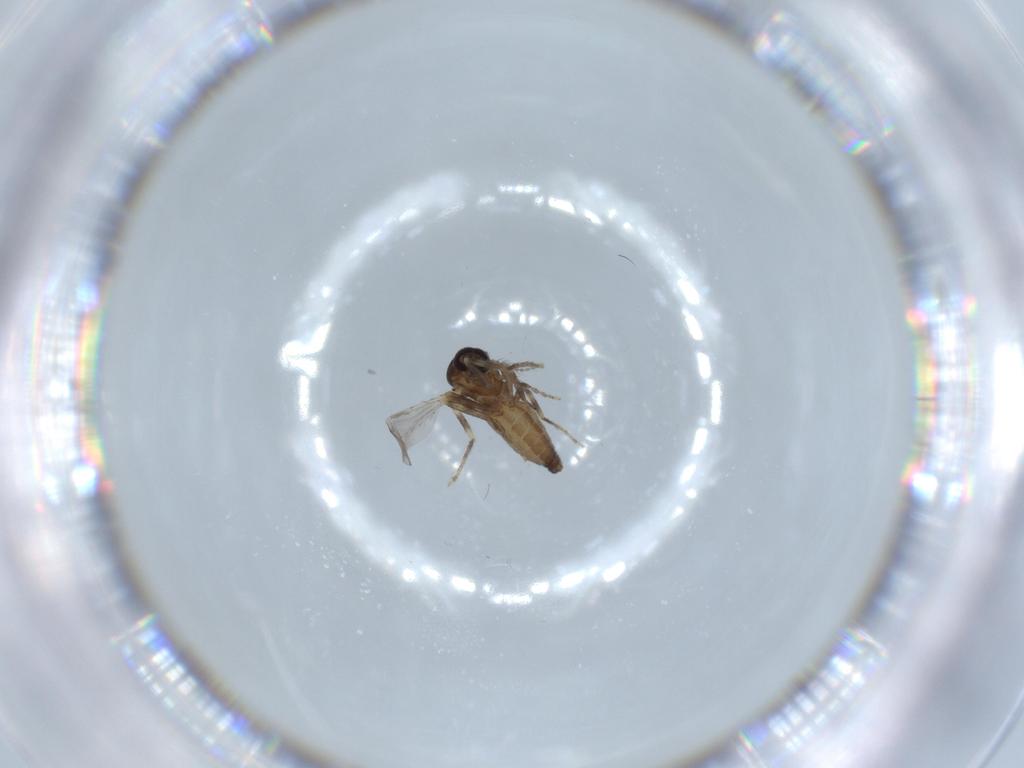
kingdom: Animalia
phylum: Arthropoda
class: Insecta
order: Diptera
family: Ceratopogonidae
